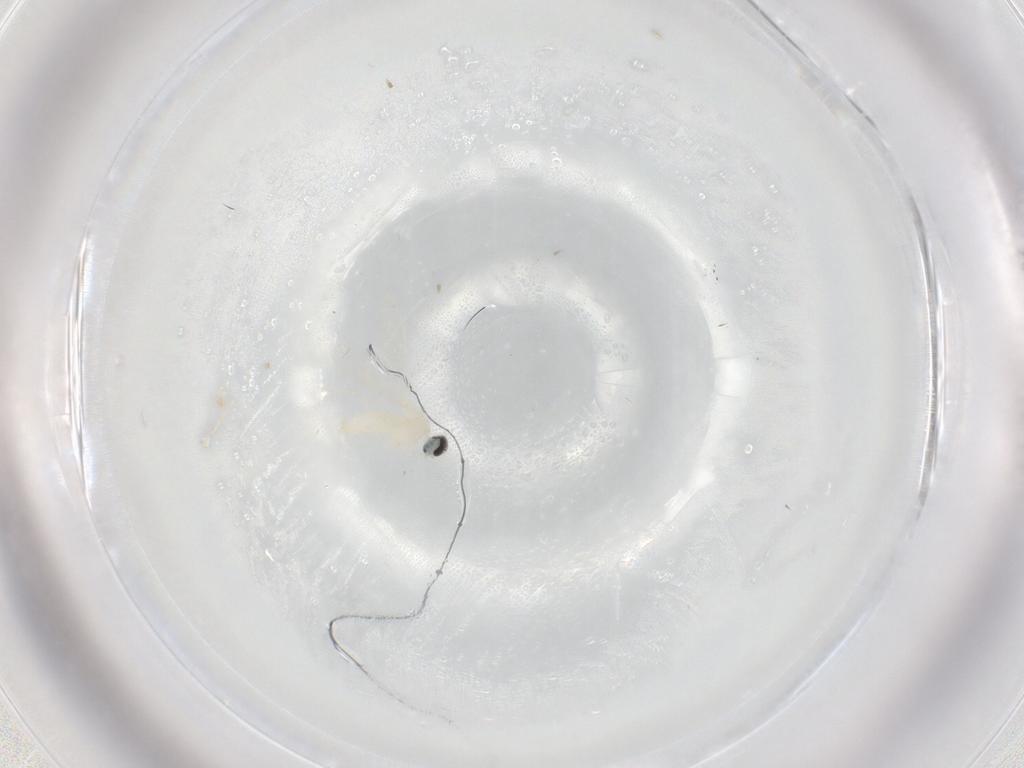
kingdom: Animalia
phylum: Arthropoda
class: Insecta
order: Diptera
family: Cecidomyiidae
